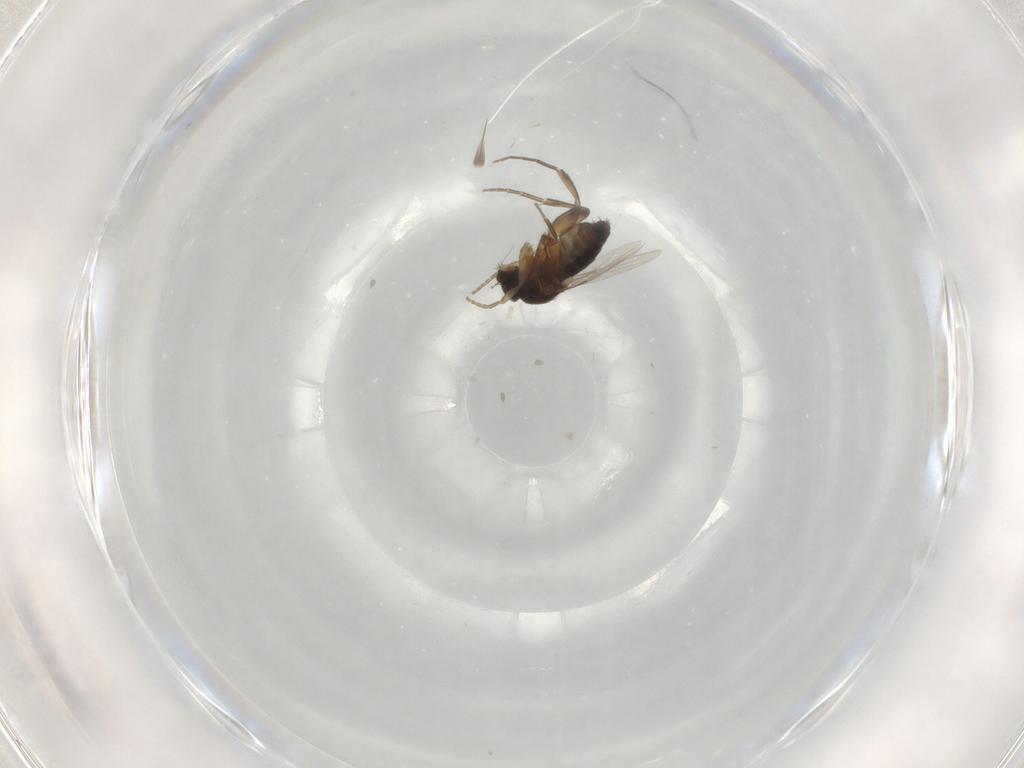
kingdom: Animalia
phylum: Arthropoda
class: Insecta
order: Diptera
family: Phoridae
